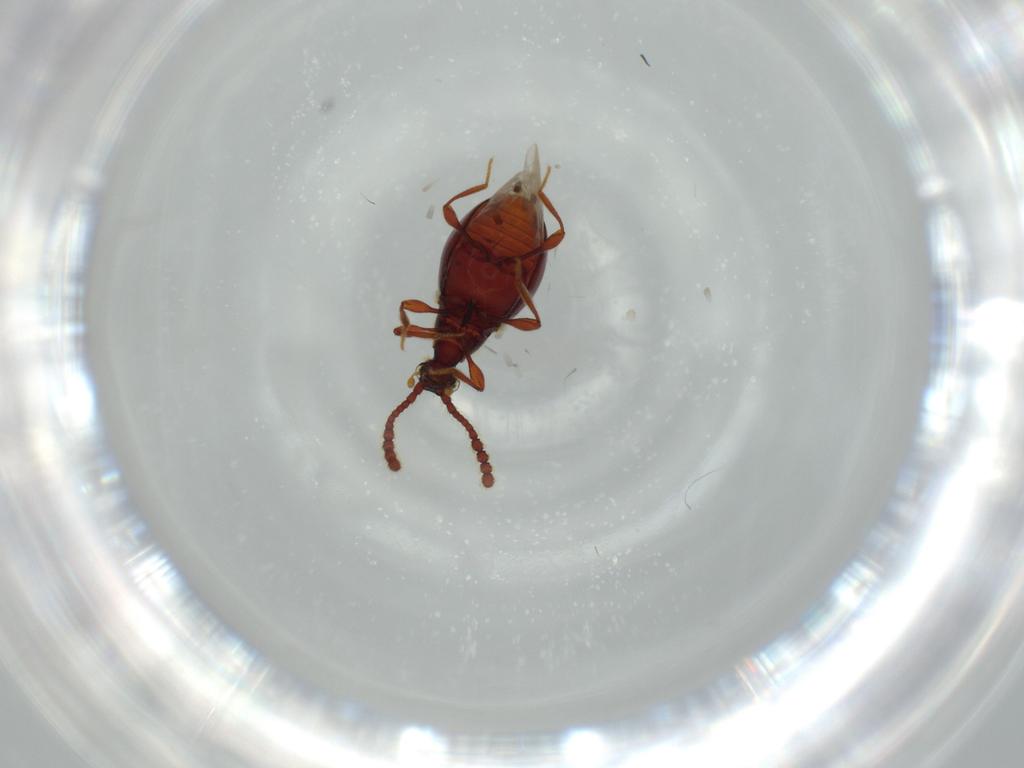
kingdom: Animalia
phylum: Arthropoda
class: Insecta
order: Coleoptera
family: Staphylinidae
